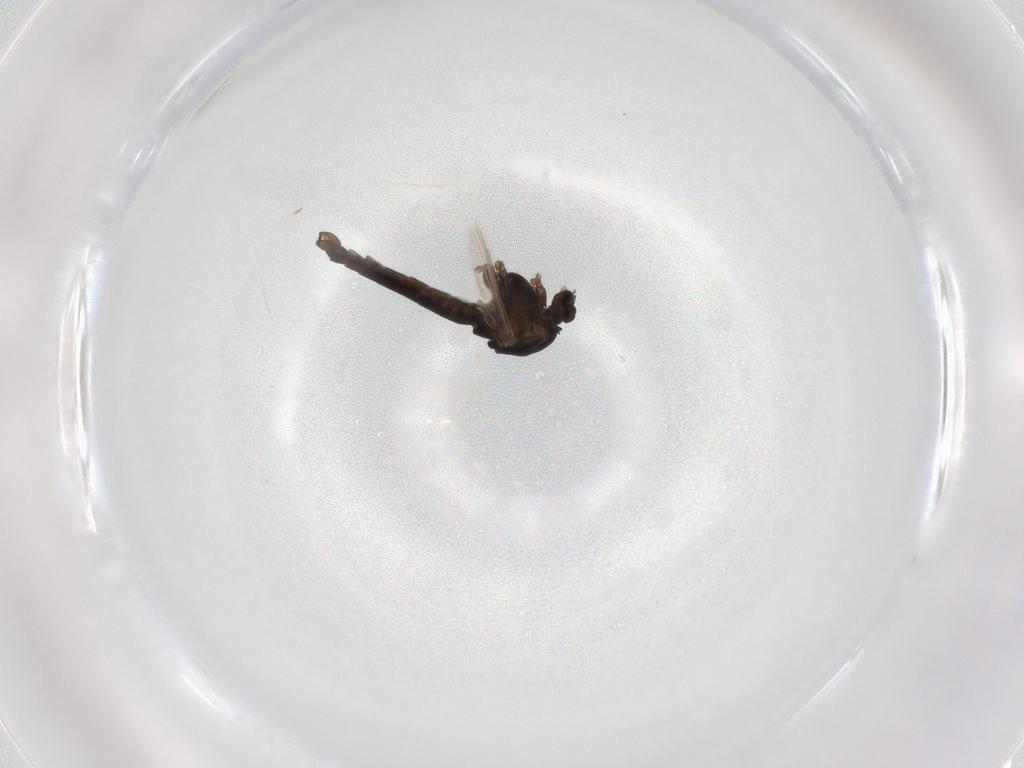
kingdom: Animalia
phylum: Arthropoda
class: Insecta
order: Diptera
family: Chironomidae
